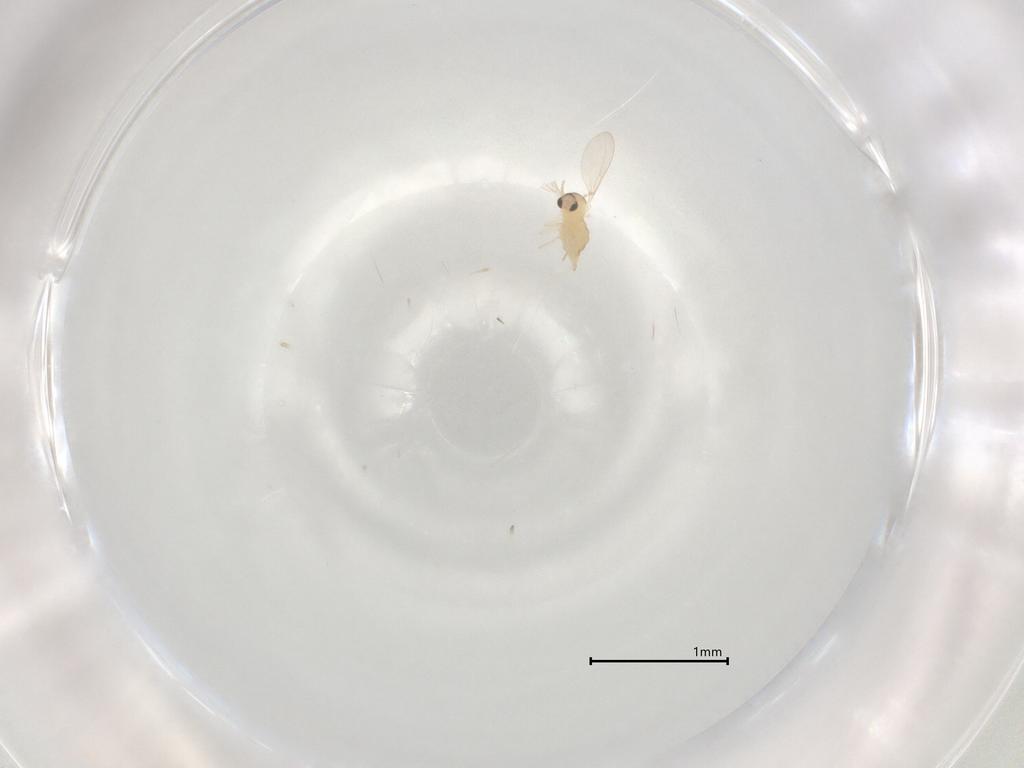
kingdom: Animalia
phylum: Arthropoda
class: Insecta
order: Diptera
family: Cecidomyiidae
